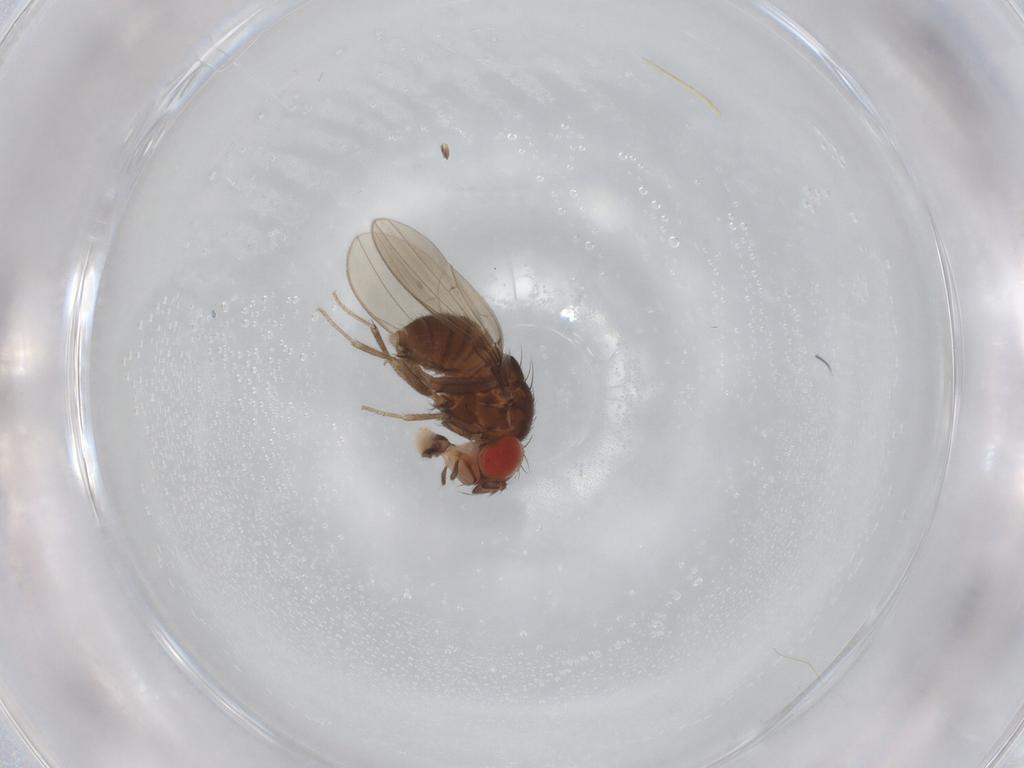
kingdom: Animalia
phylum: Arthropoda
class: Insecta
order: Diptera
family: Drosophilidae
